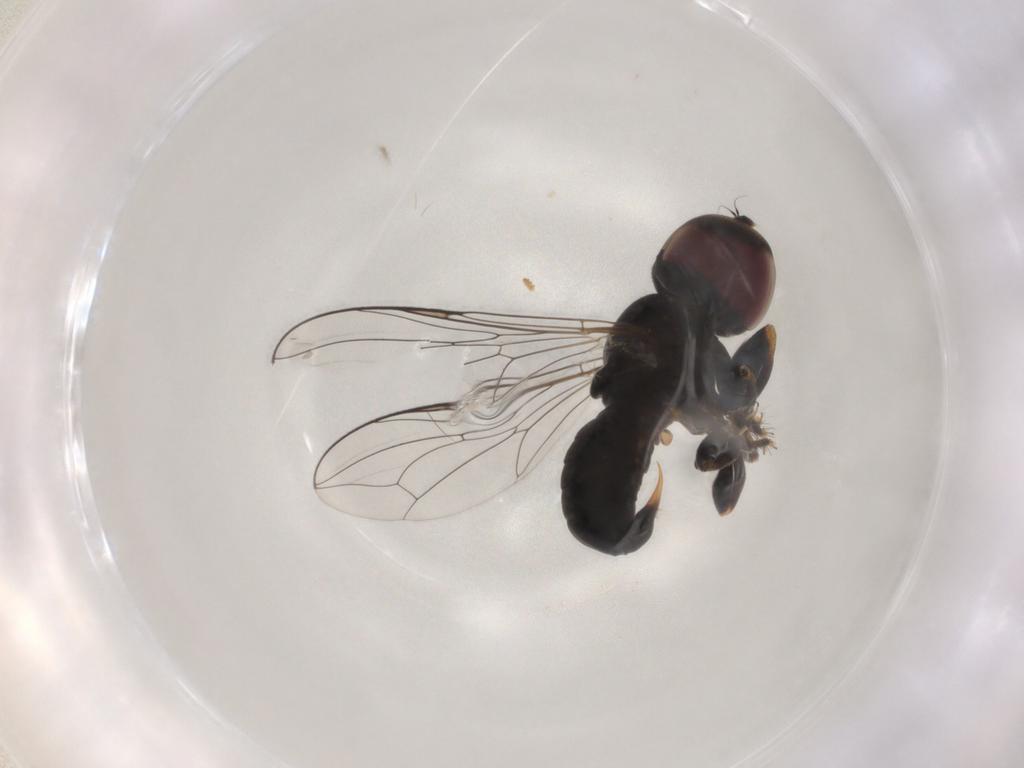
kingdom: Animalia
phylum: Arthropoda
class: Insecta
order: Diptera
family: Pipunculidae
